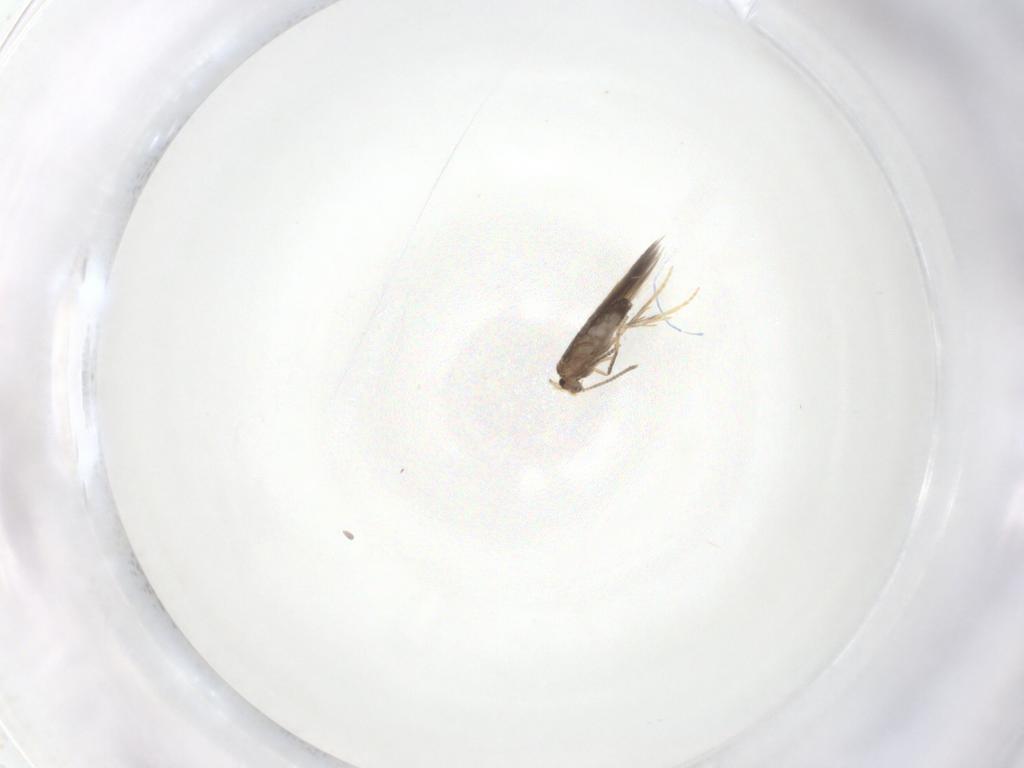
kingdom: Animalia
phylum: Arthropoda
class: Insecta
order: Lepidoptera
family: Nepticulidae
